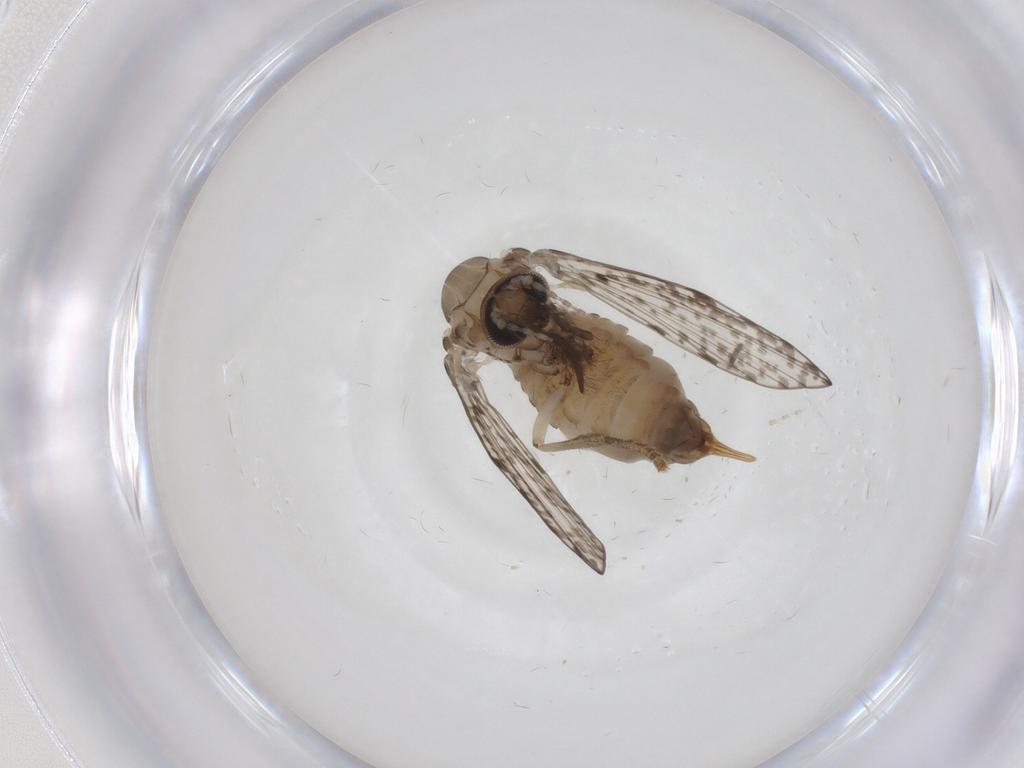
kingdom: Animalia
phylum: Arthropoda
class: Insecta
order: Diptera
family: Psychodidae
